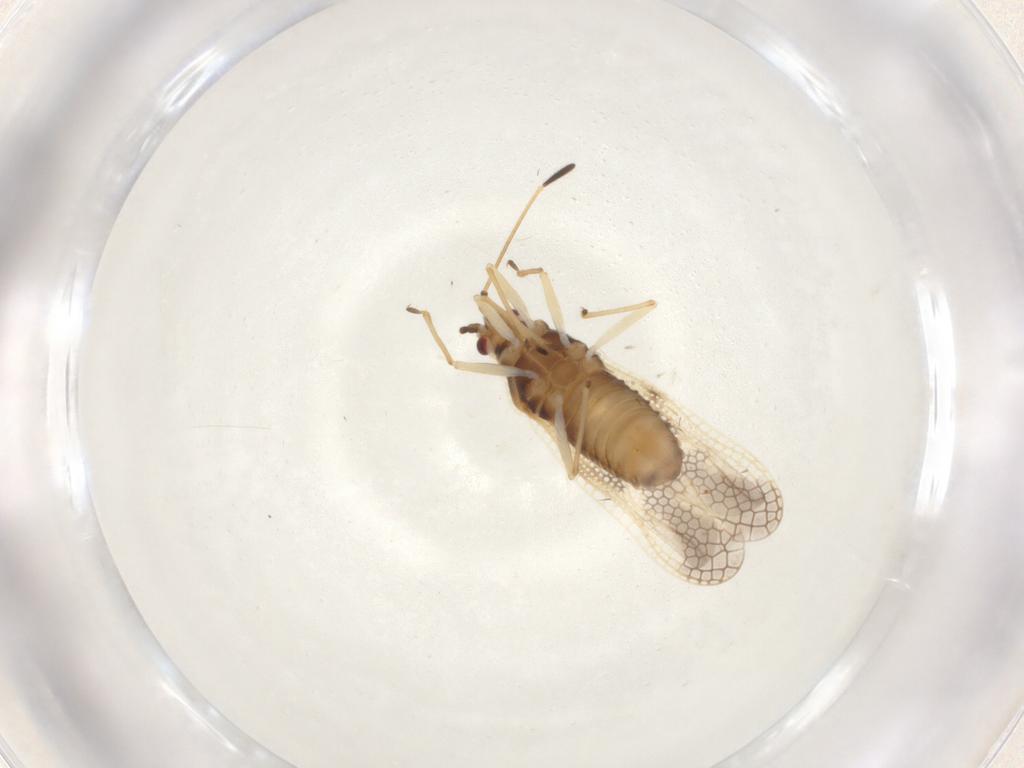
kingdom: Animalia
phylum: Arthropoda
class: Insecta
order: Hemiptera
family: Tingidae
